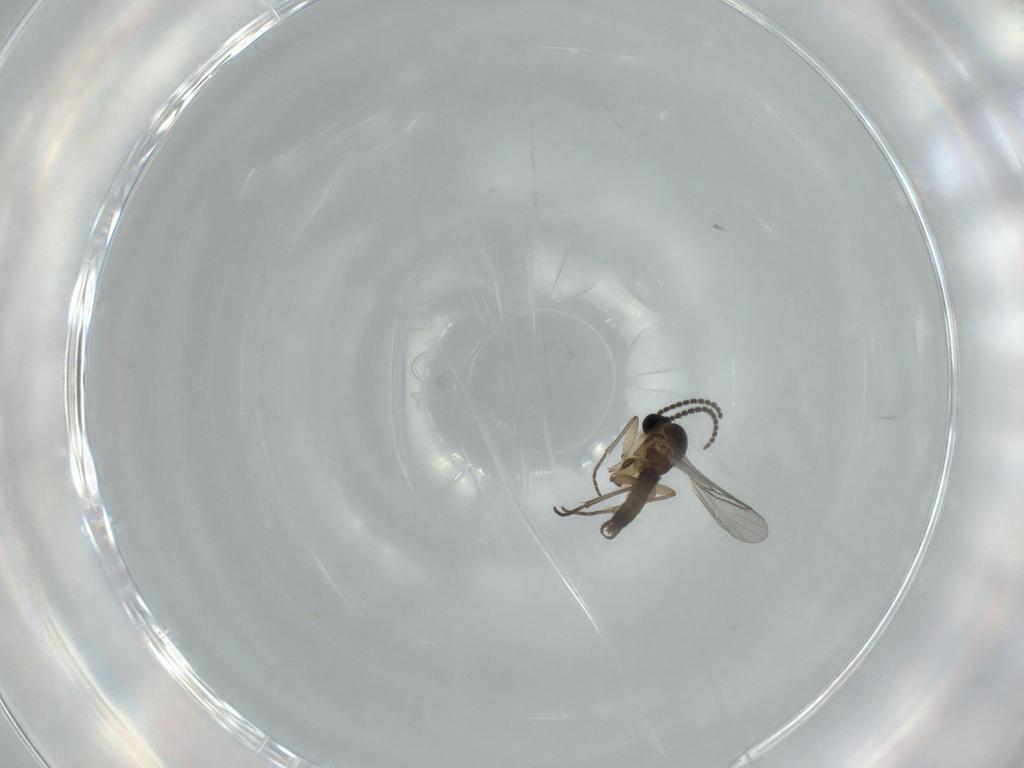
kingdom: Animalia
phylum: Arthropoda
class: Insecta
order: Diptera
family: Sciaridae
